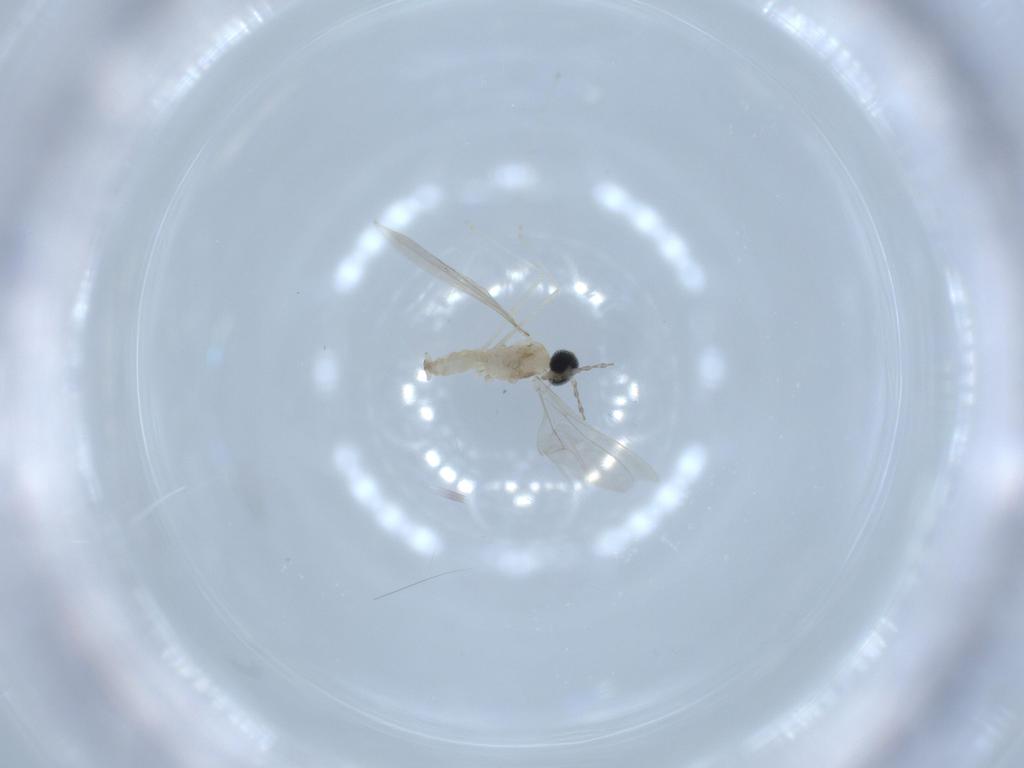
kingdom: Animalia
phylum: Arthropoda
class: Insecta
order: Diptera
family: Cecidomyiidae
